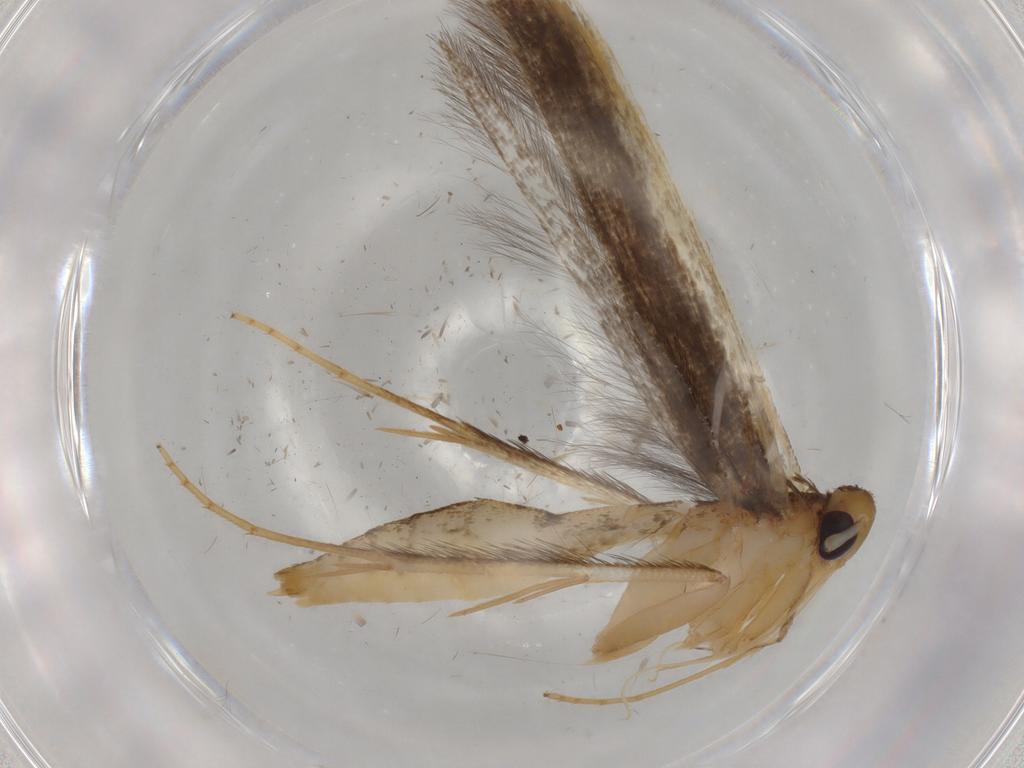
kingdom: Animalia
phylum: Arthropoda
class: Insecta
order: Lepidoptera
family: Pterolonchidae
